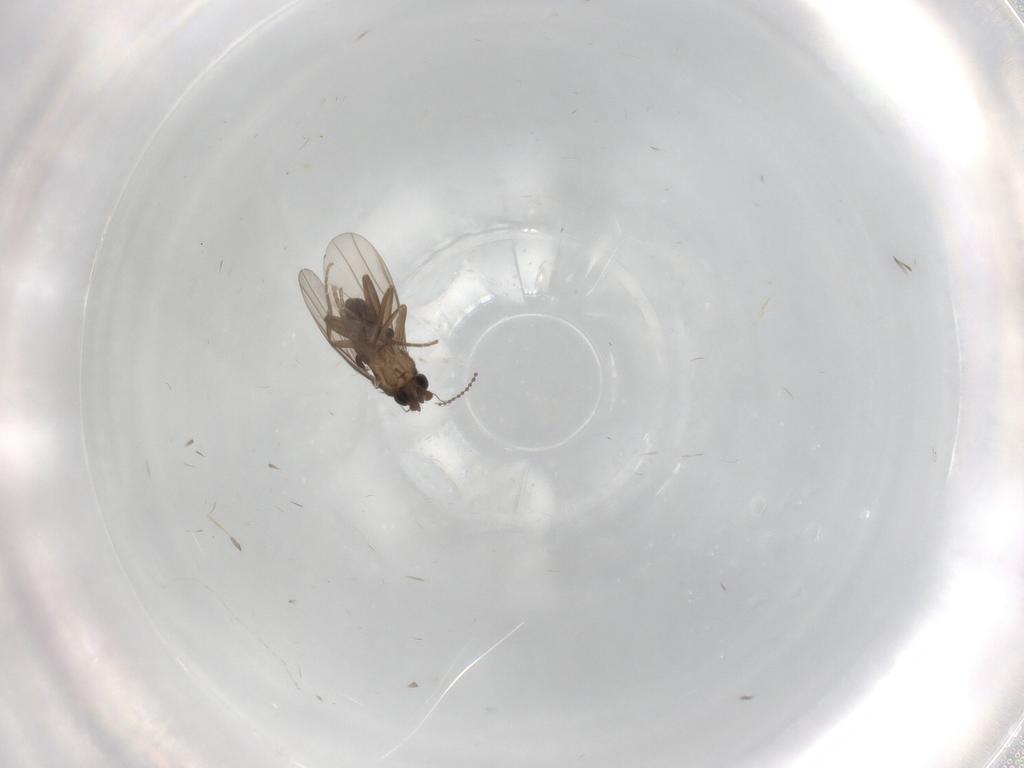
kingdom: Animalia
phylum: Arthropoda
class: Insecta
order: Diptera
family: Cecidomyiidae
